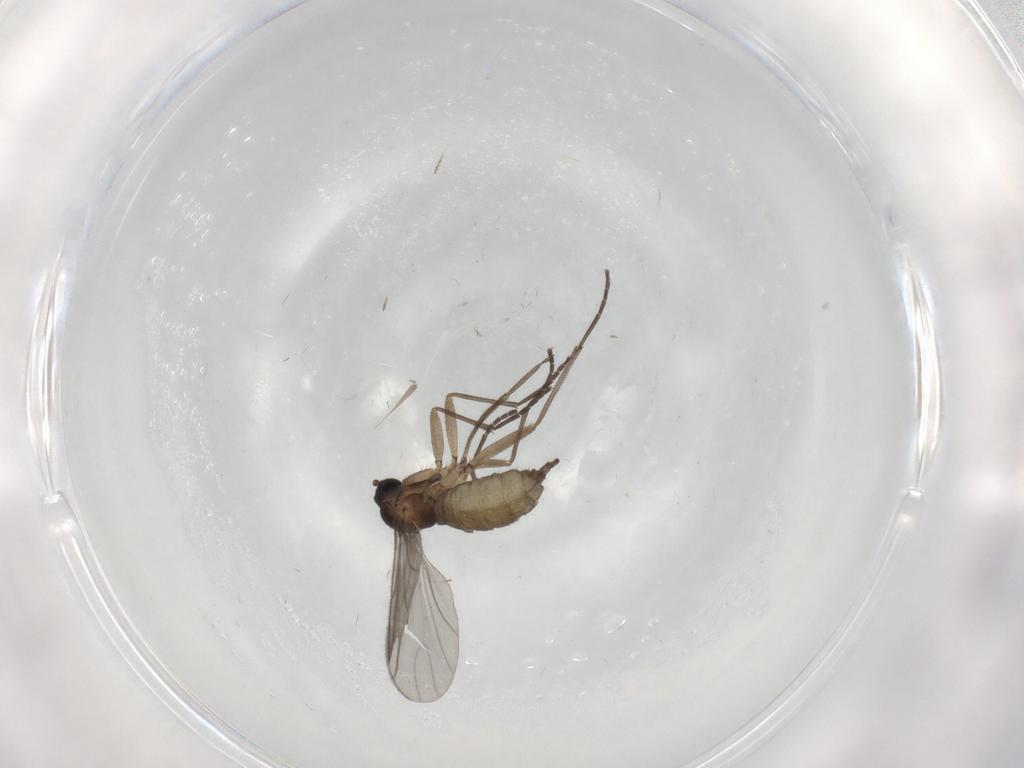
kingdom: Animalia
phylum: Arthropoda
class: Insecta
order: Diptera
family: Sciaridae
